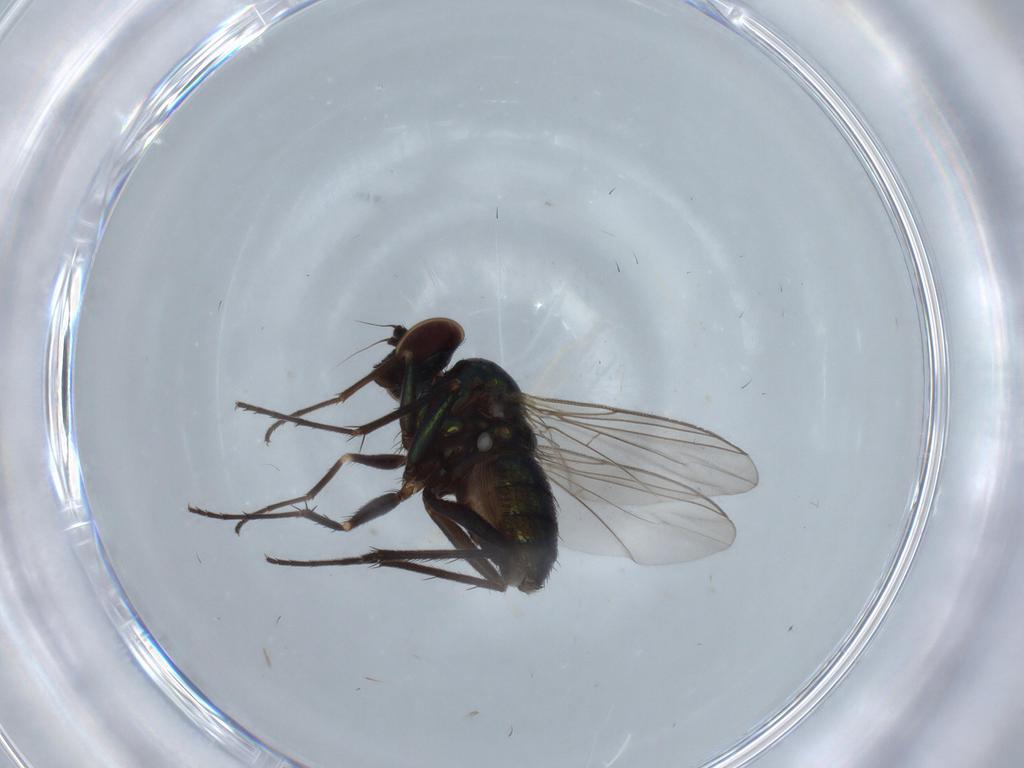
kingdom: Animalia
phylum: Arthropoda
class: Insecta
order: Diptera
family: Dolichopodidae
